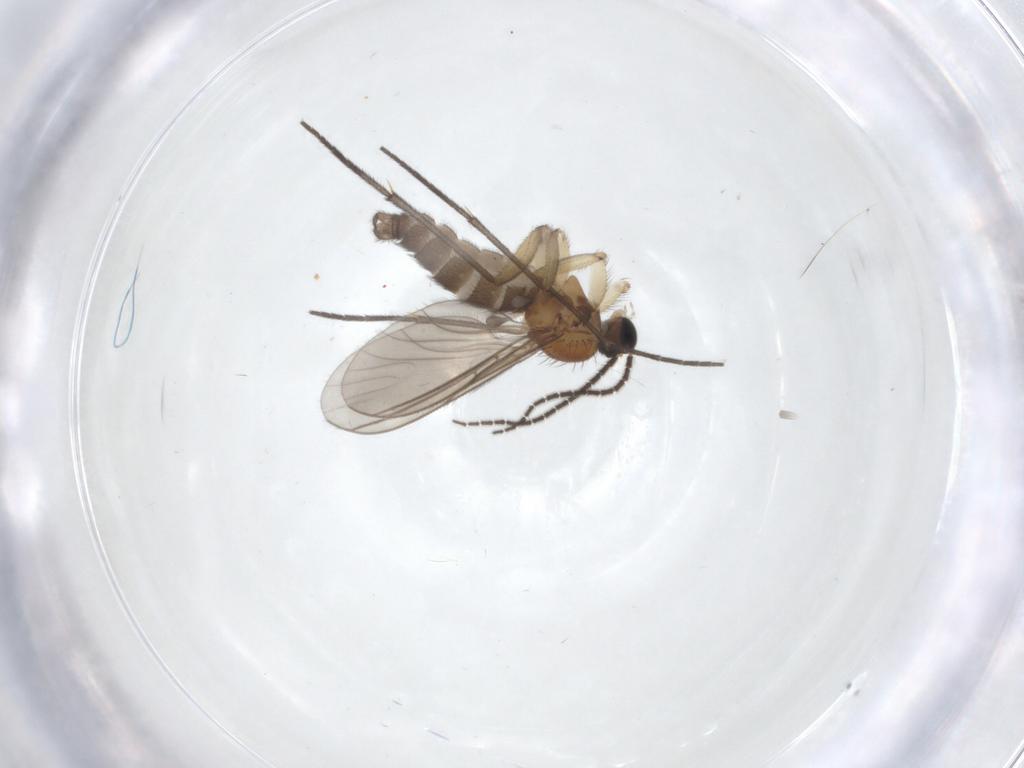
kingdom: Animalia
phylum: Arthropoda
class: Insecta
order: Diptera
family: Sciaridae
